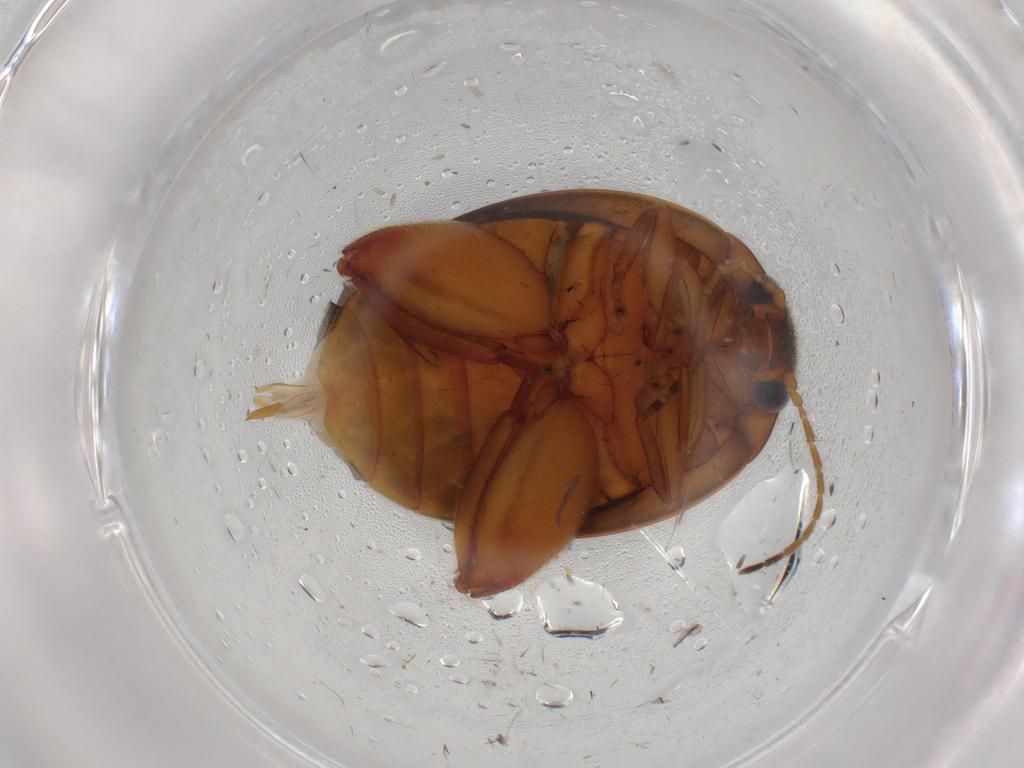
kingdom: Animalia
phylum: Arthropoda
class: Insecta
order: Coleoptera
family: Scirtidae
